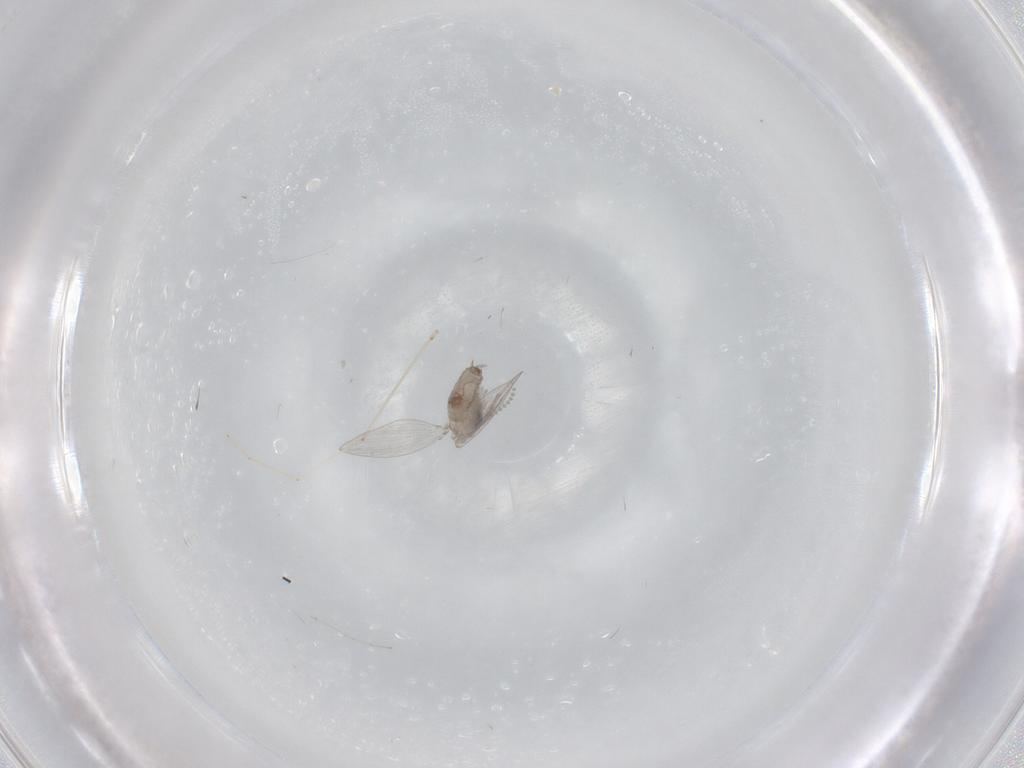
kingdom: Animalia
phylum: Arthropoda
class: Insecta
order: Diptera
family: Psychodidae
